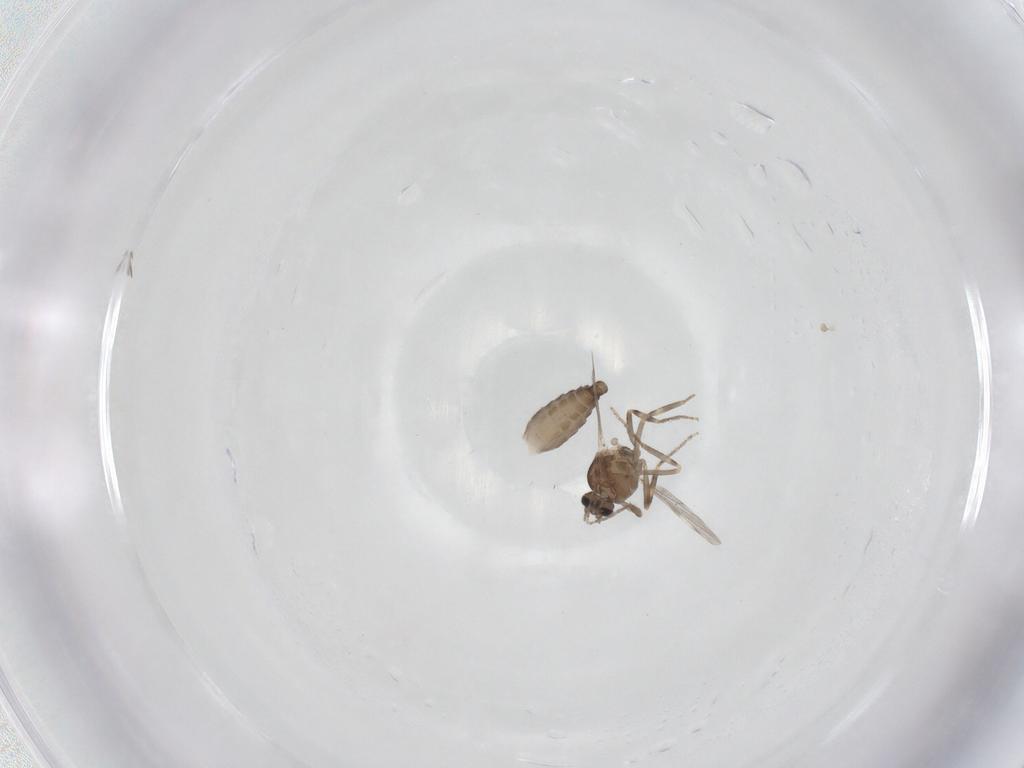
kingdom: Animalia
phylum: Arthropoda
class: Insecta
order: Diptera
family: Ceratopogonidae
